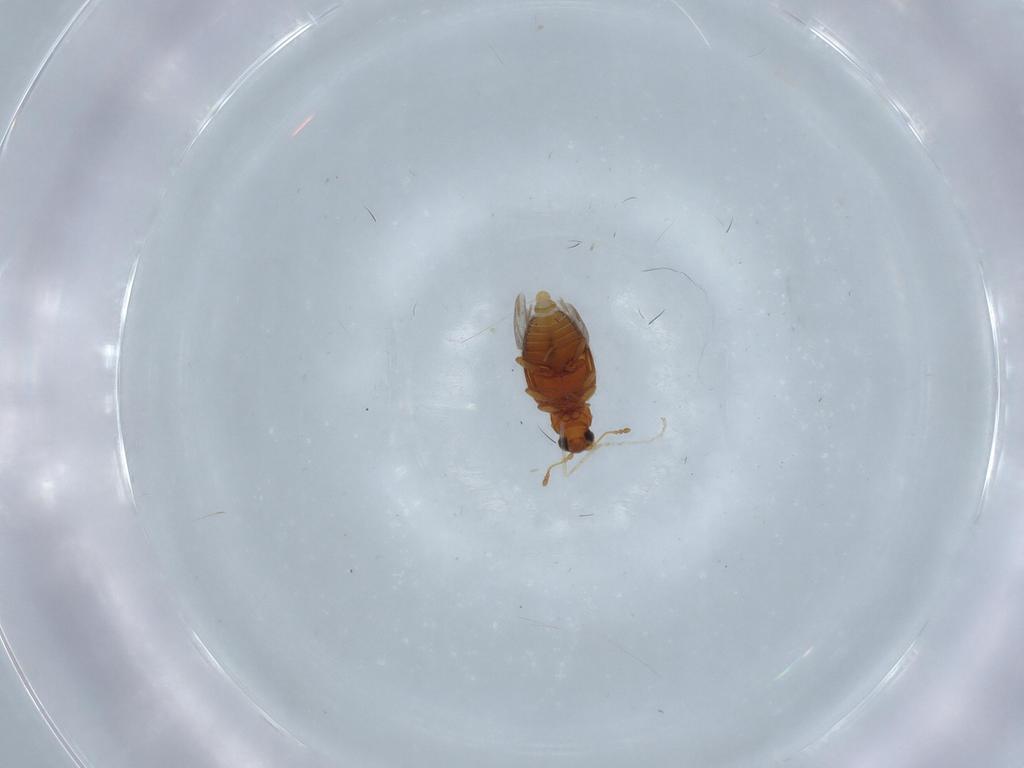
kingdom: Animalia
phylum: Arthropoda
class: Insecta
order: Coleoptera
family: Latridiidae
